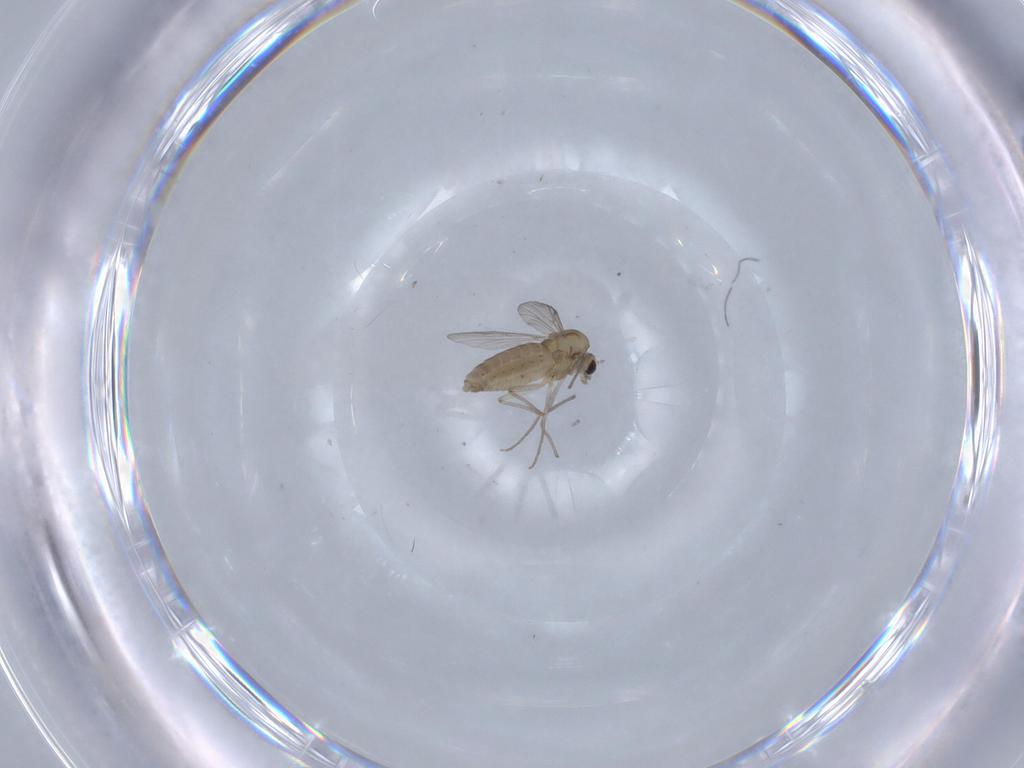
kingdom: Animalia
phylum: Arthropoda
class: Insecta
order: Diptera
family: Chironomidae
